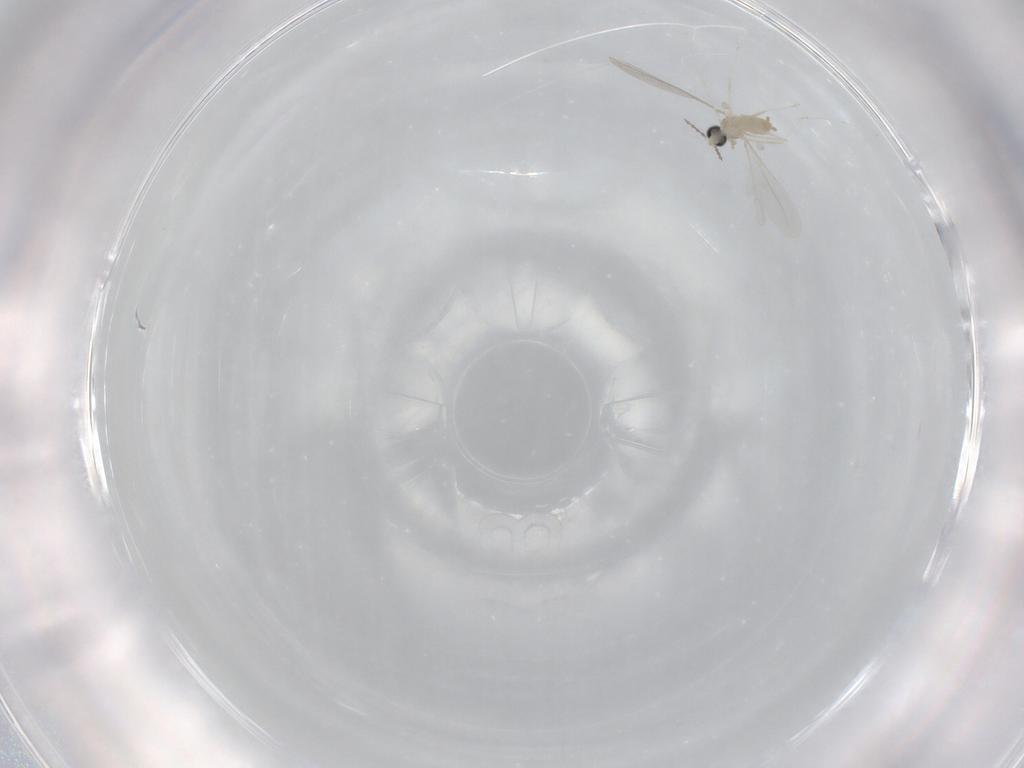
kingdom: Animalia
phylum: Arthropoda
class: Insecta
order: Diptera
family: Cecidomyiidae
